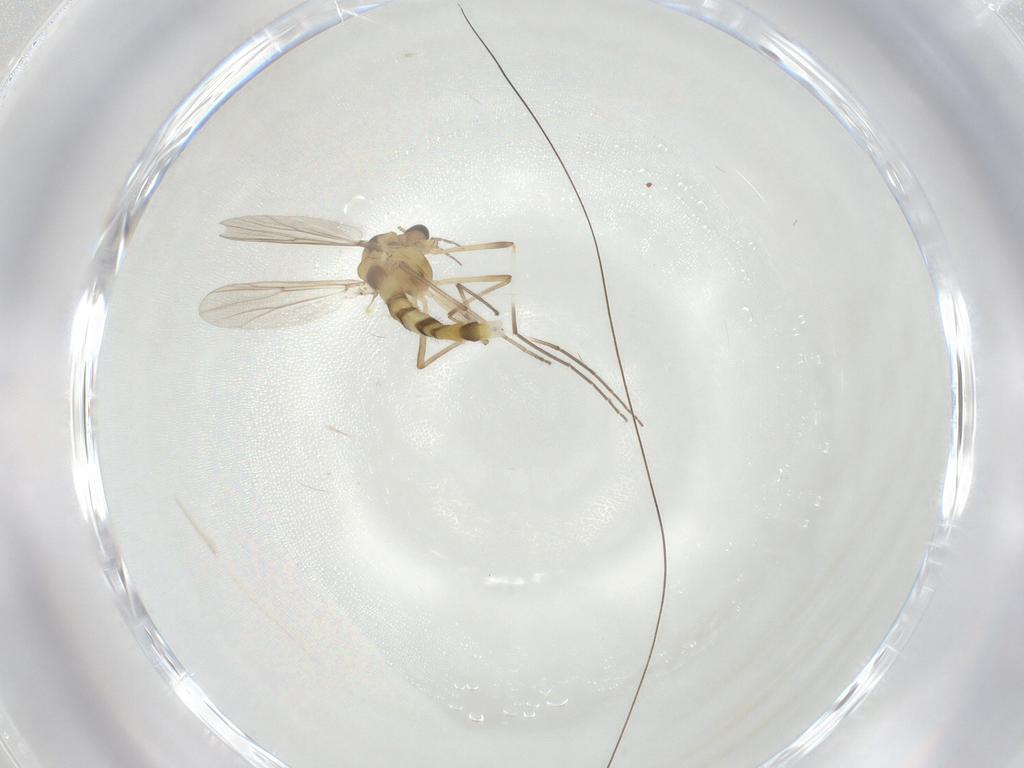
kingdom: Animalia
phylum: Arthropoda
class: Insecta
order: Diptera
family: Chironomidae
